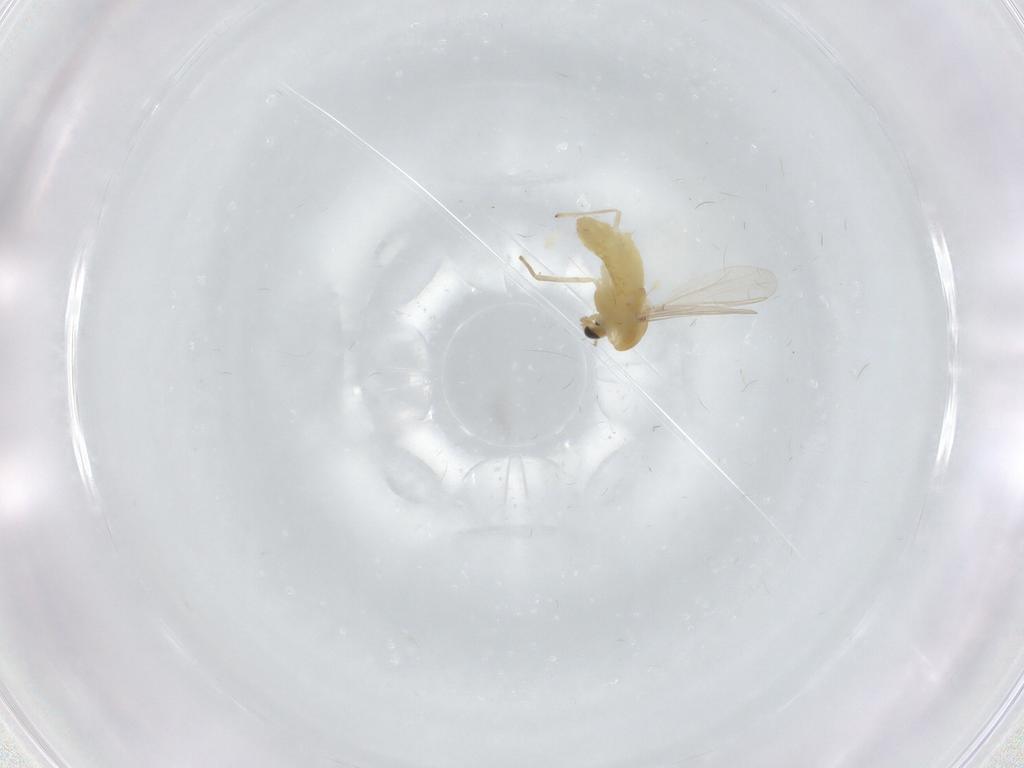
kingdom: Animalia
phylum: Arthropoda
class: Insecta
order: Diptera
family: Chironomidae
